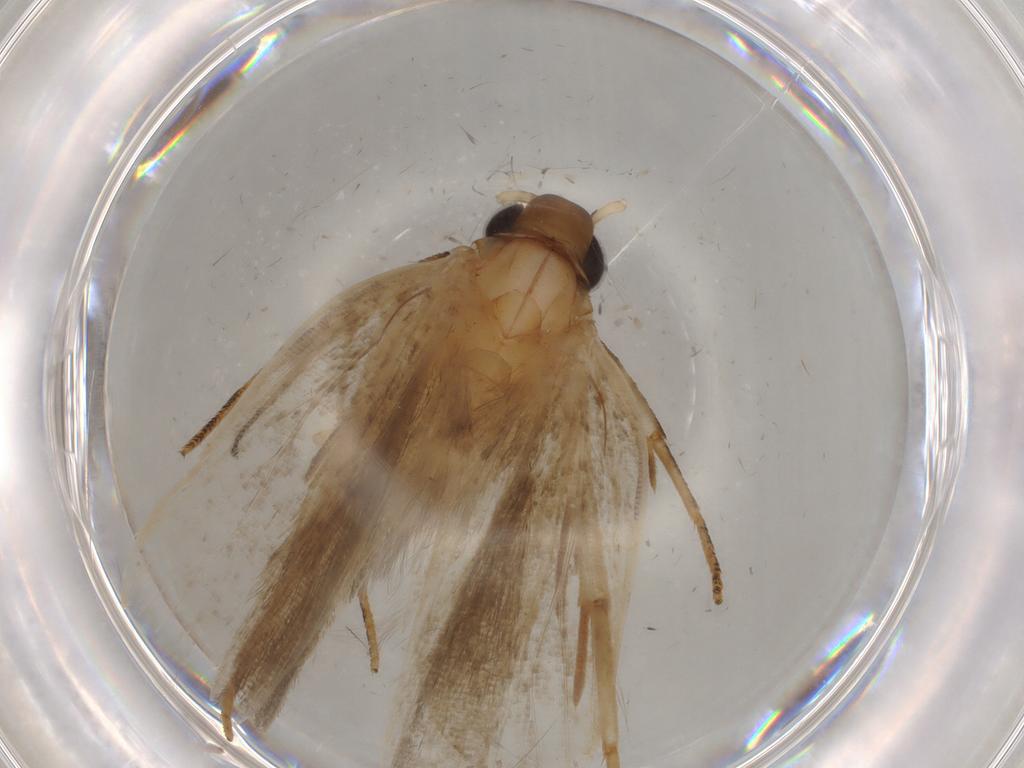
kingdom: Animalia
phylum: Arthropoda
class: Insecta
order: Lepidoptera
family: Gelechiidae
